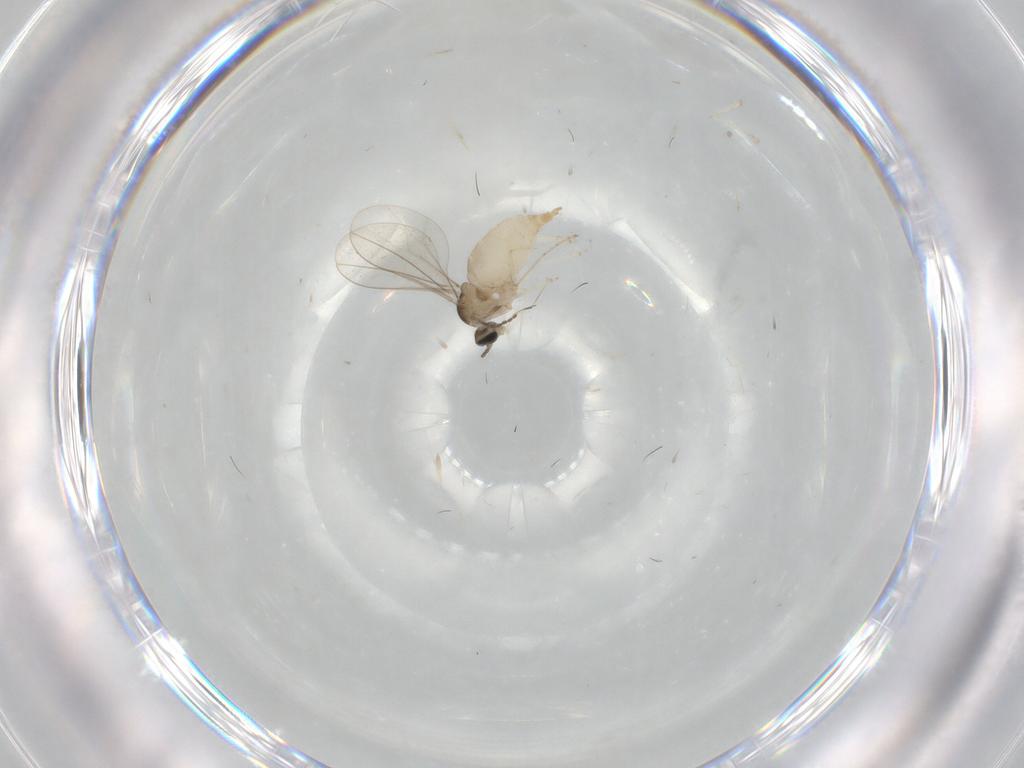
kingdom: Animalia
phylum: Arthropoda
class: Insecta
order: Diptera
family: Cecidomyiidae
